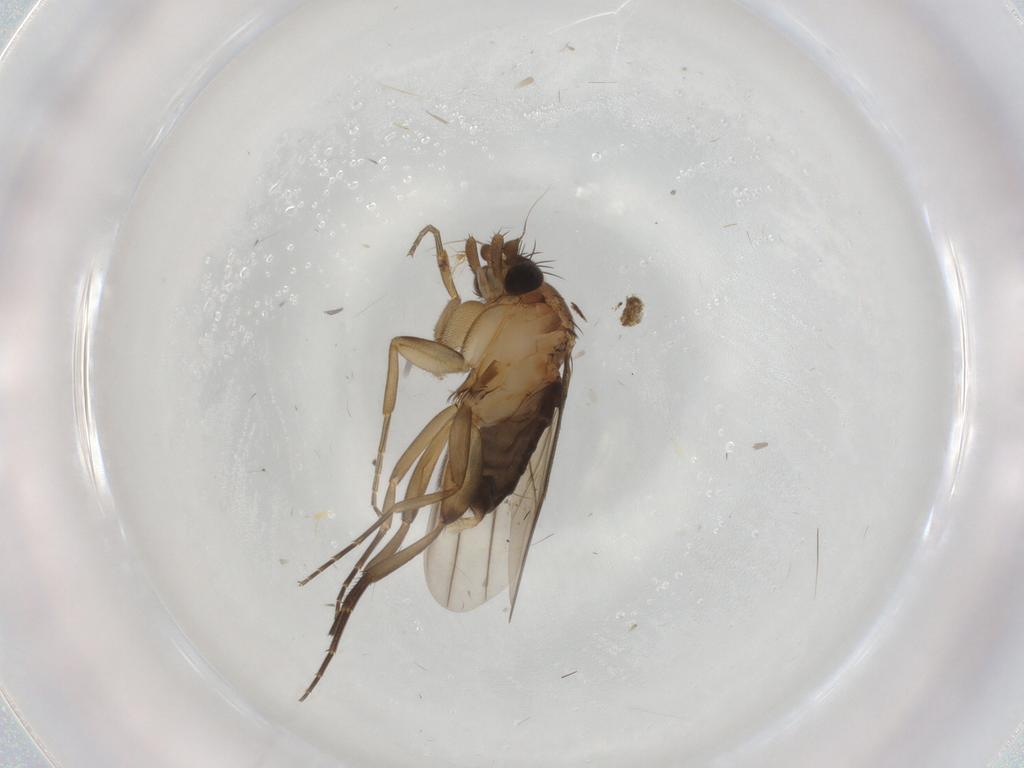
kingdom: Animalia
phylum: Arthropoda
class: Insecta
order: Diptera
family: Phoridae
